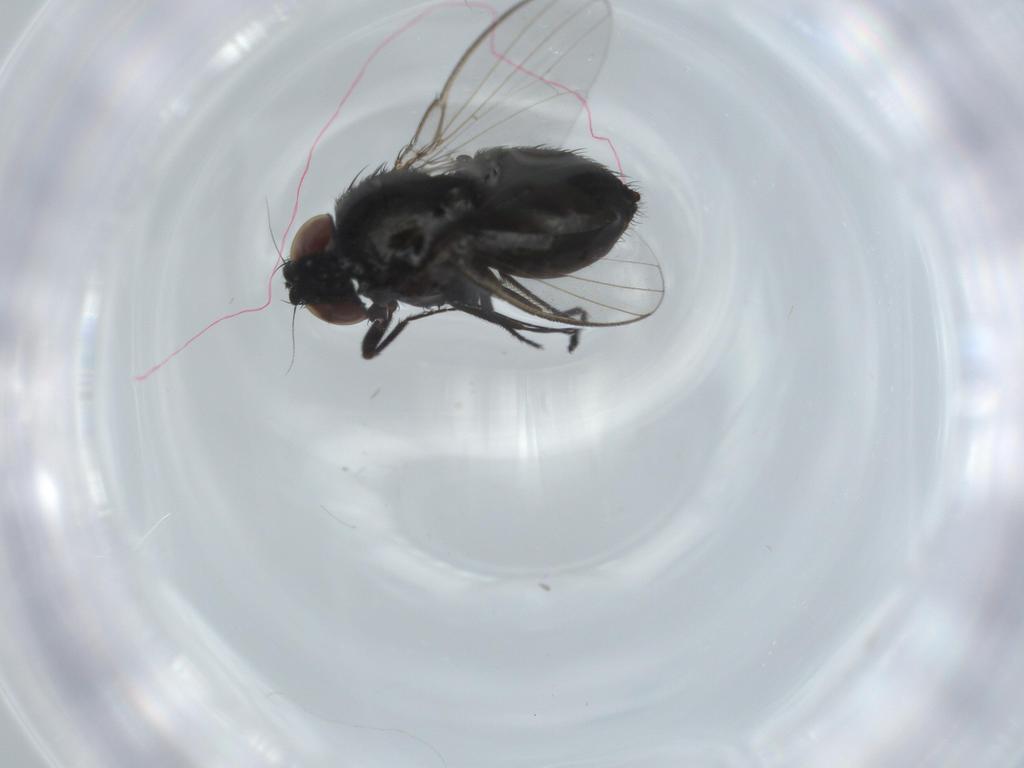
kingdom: Animalia
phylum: Arthropoda
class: Insecta
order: Diptera
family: Milichiidae
